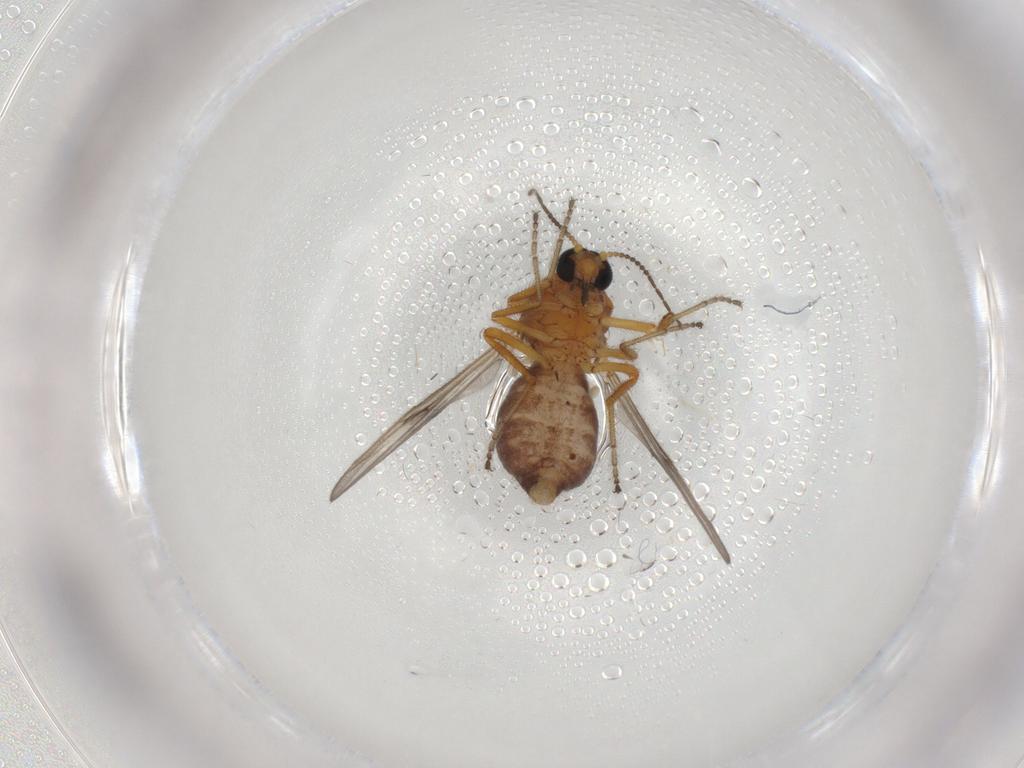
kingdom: Animalia
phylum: Arthropoda
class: Insecta
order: Diptera
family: Ceratopogonidae
